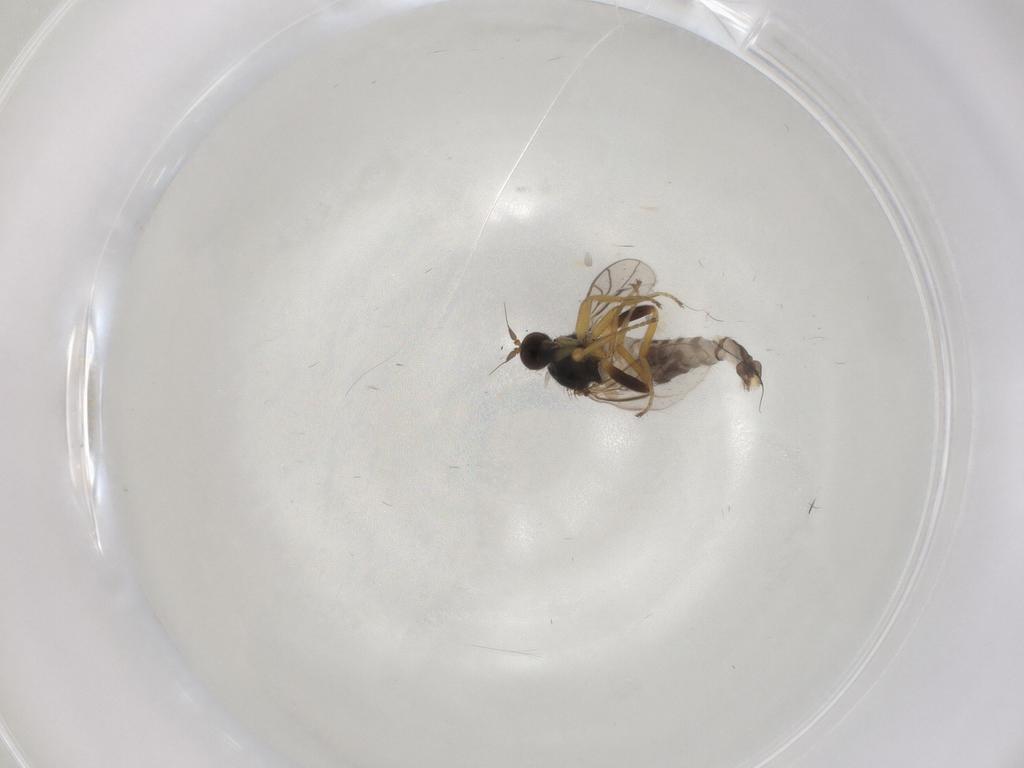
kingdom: Animalia
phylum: Arthropoda
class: Insecta
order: Diptera
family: Hybotidae
